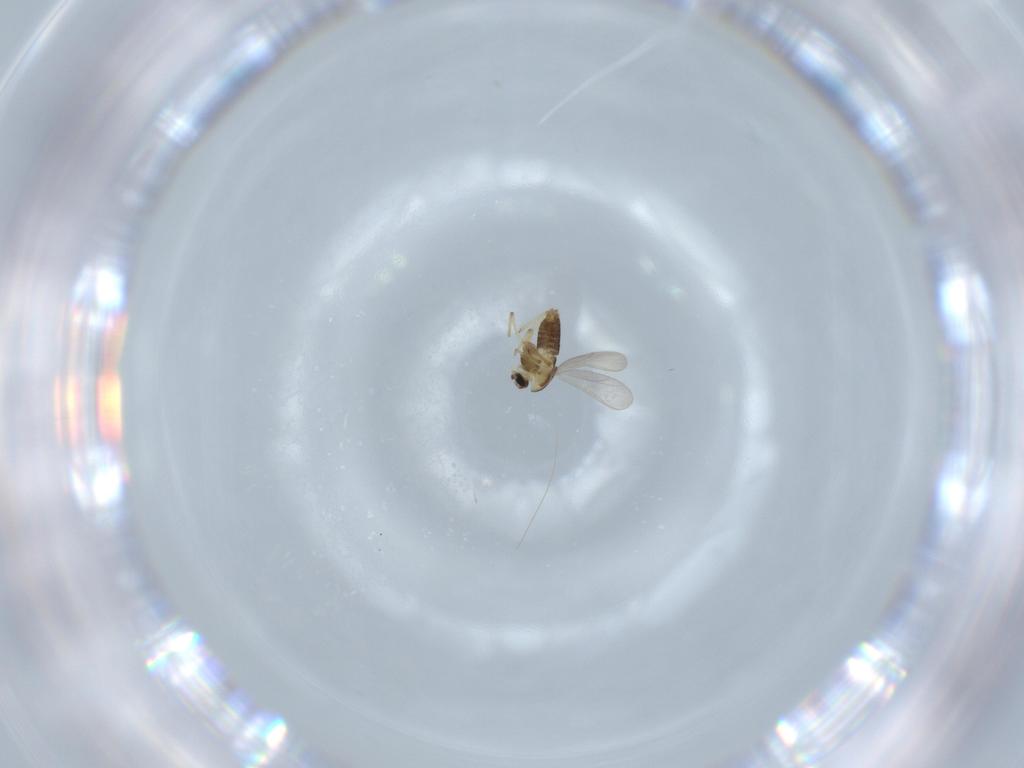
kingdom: Animalia
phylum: Arthropoda
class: Insecta
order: Diptera
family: Chironomidae
